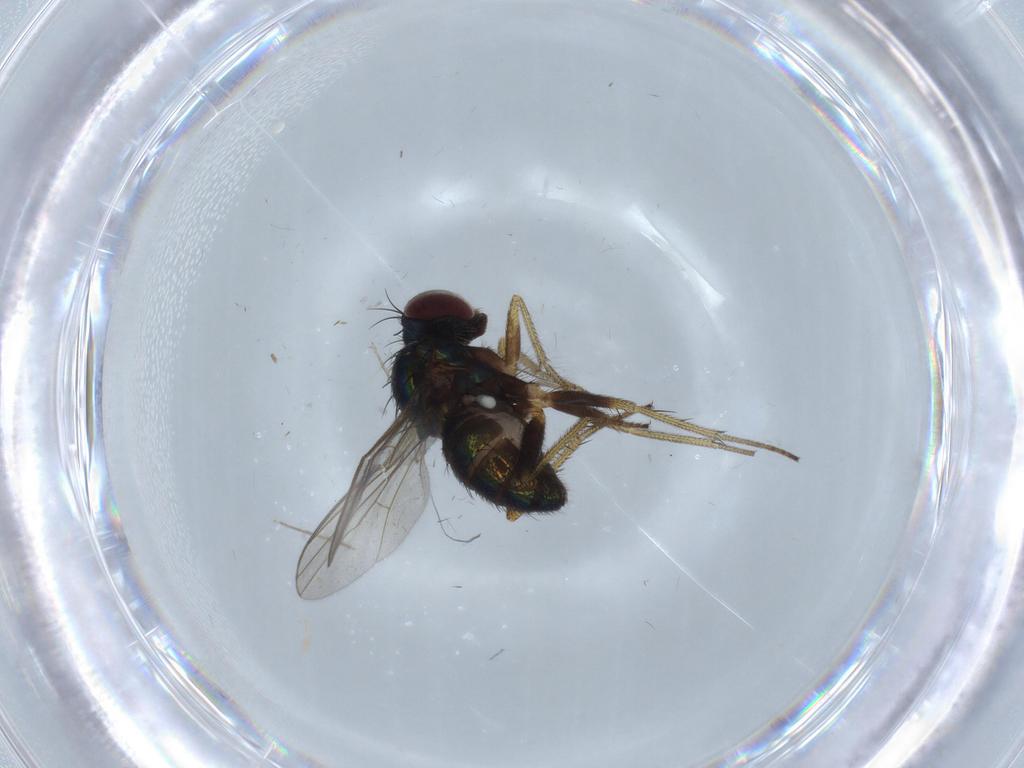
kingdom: Animalia
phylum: Arthropoda
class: Insecta
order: Diptera
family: Chironomidae
